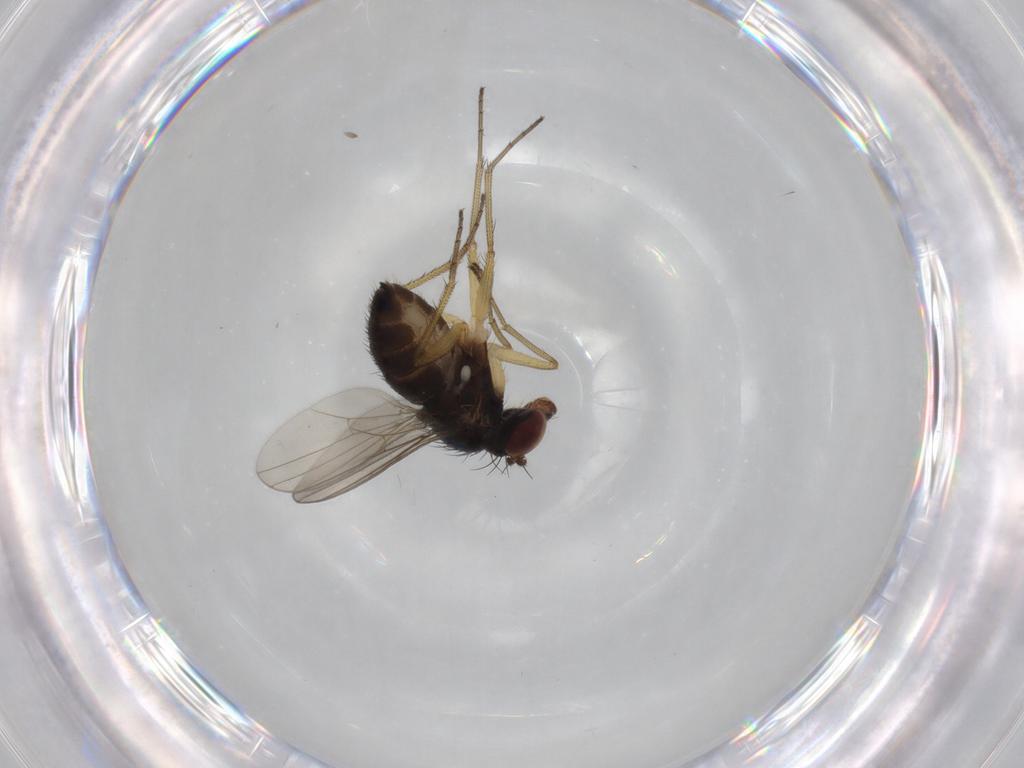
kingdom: Animalia
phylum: Arthropoda
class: Insecta
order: Diptera
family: Dolichopodidae
